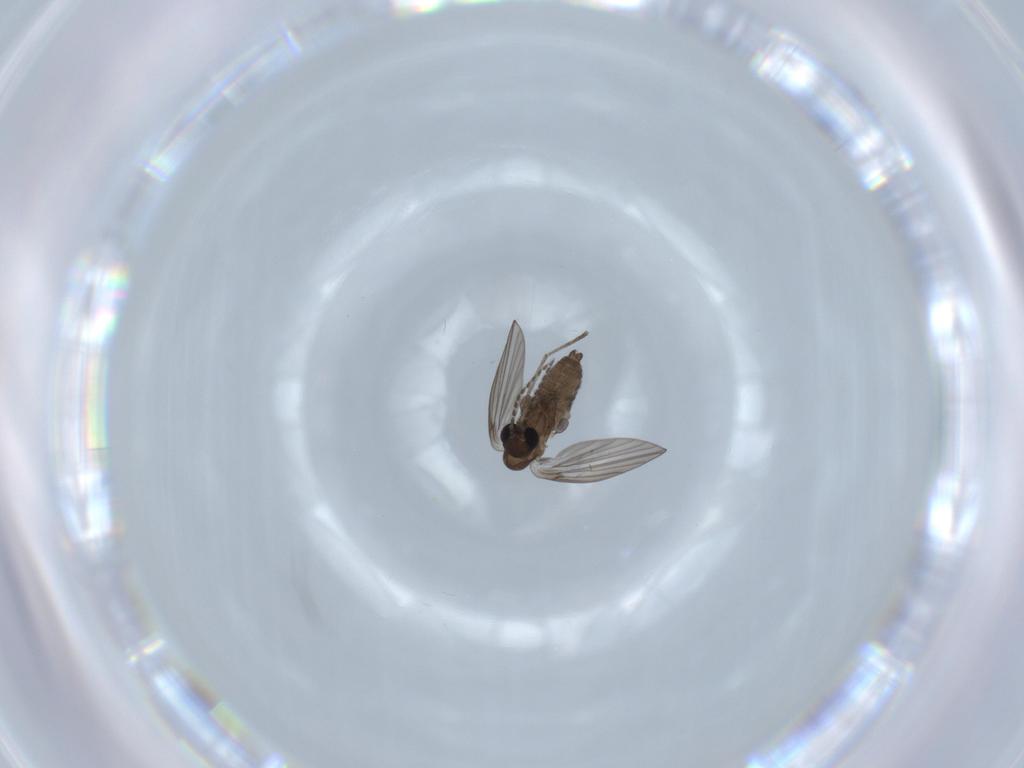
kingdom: Animalia
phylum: Arthropoda
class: Insecta
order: Diptera
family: Psychodidae
